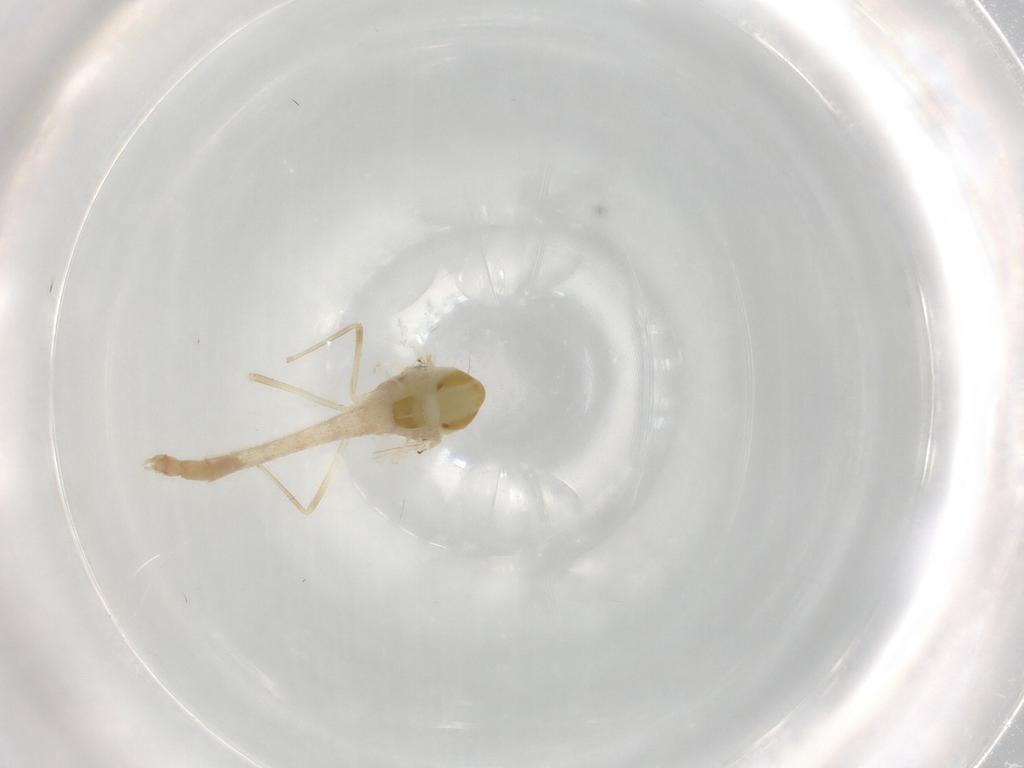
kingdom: Animalia
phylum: Arthropoda
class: Insecta
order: Diptera
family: Chironomidae
